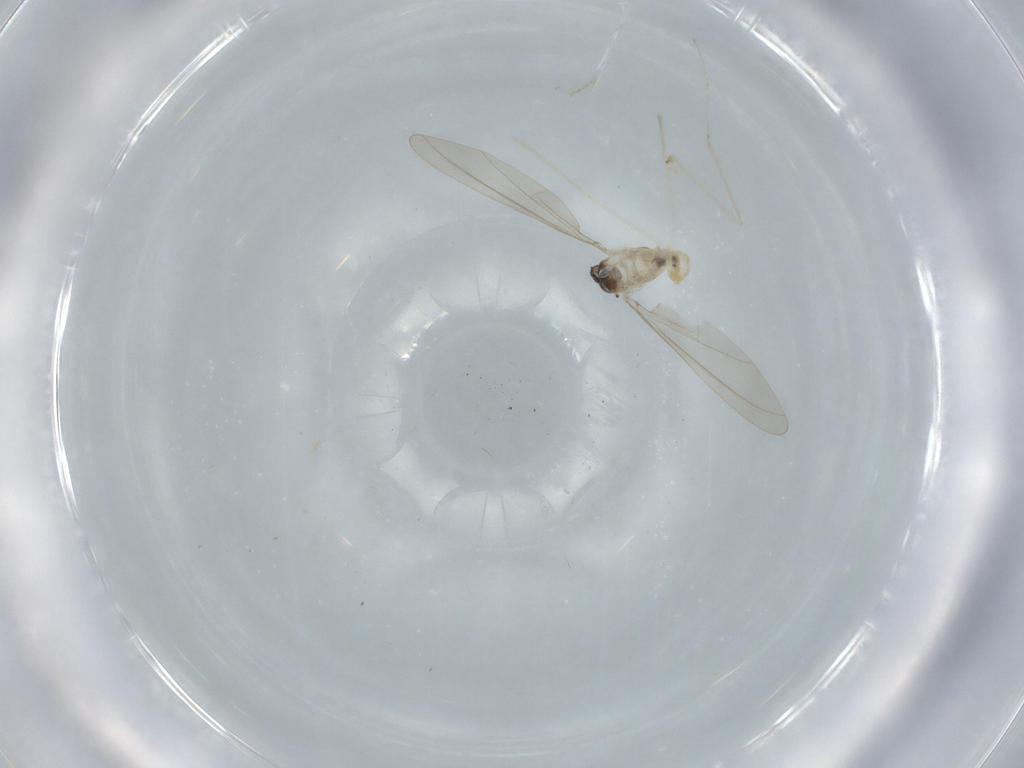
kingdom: Animalia
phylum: Arthropoda
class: Insecta
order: Diptera
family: Cecidomyiidae
